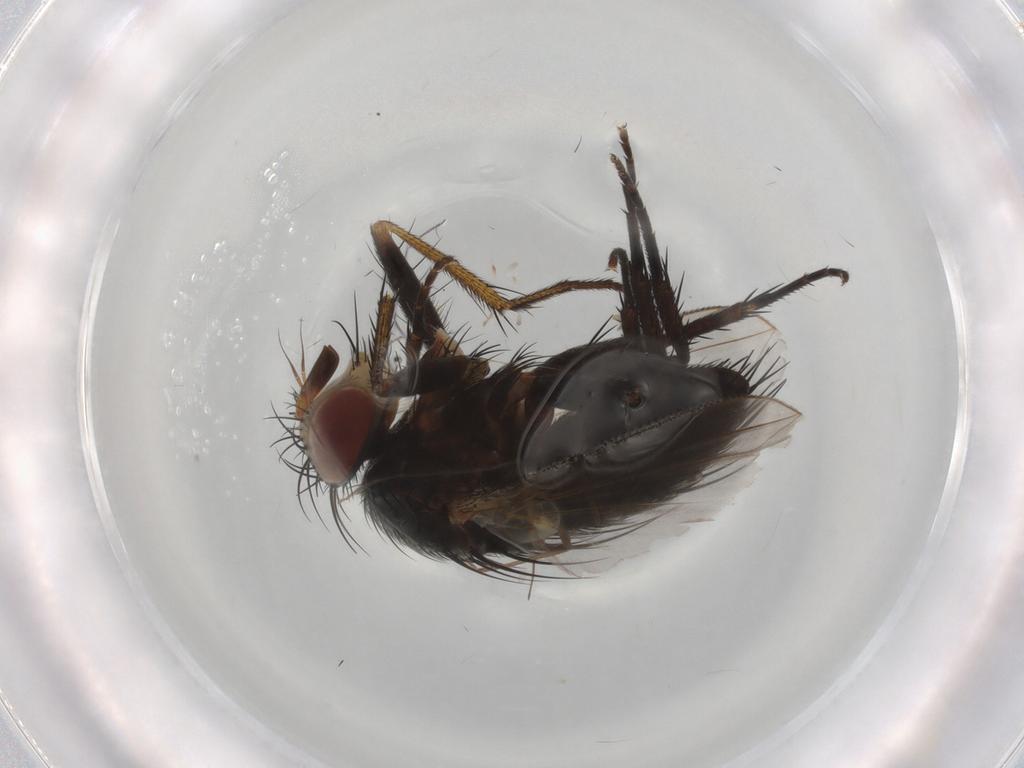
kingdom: Animalia
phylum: Arthropoda
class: Insecta
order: Diptera
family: Tachinidae
